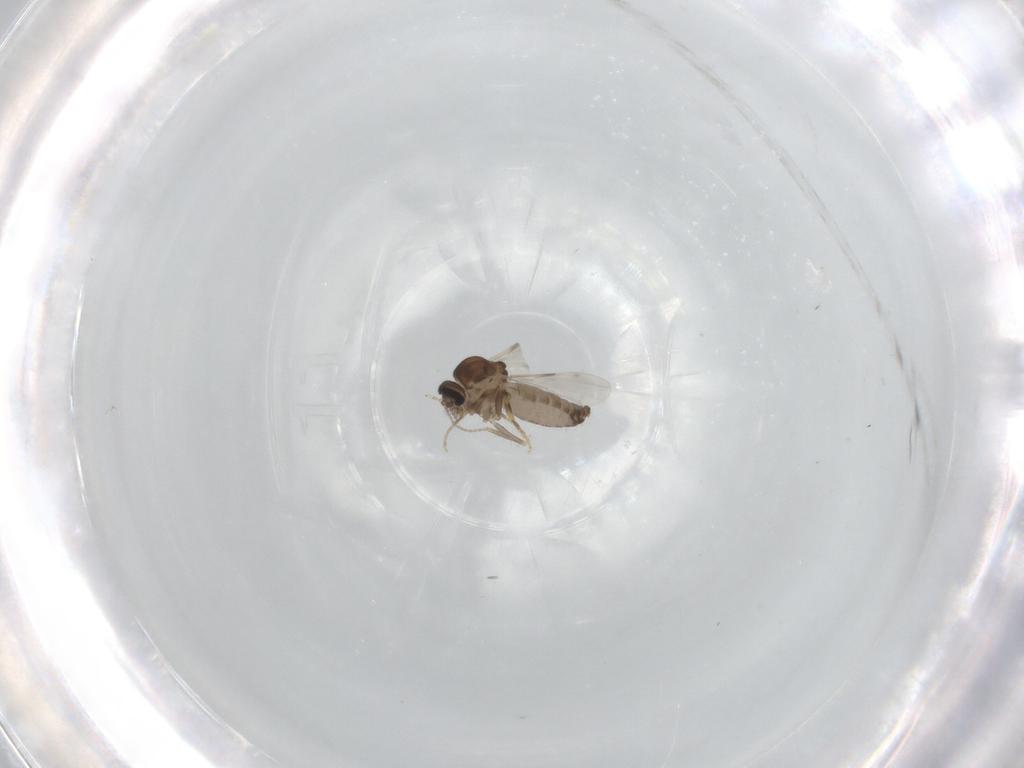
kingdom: Animalia
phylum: Arthropoda
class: Insecta
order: Diptera
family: Ceratopogonidae
